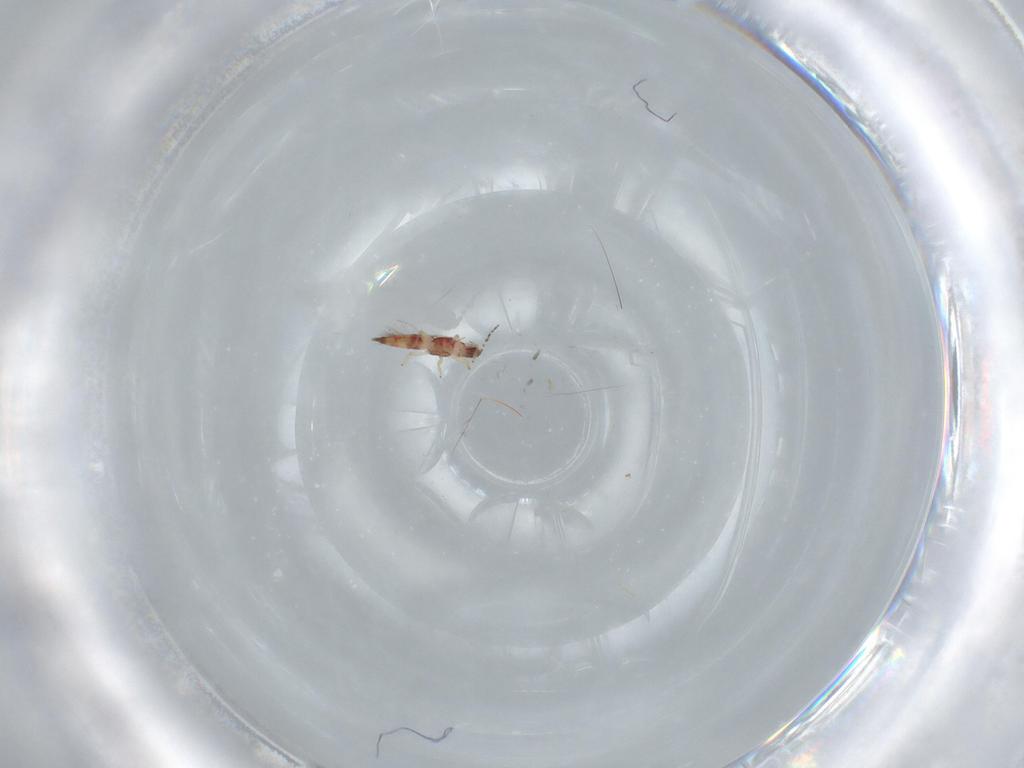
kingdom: Animalia
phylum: Arthropoda
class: Insecta
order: Thysanoptera
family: Phlaeothripidae
